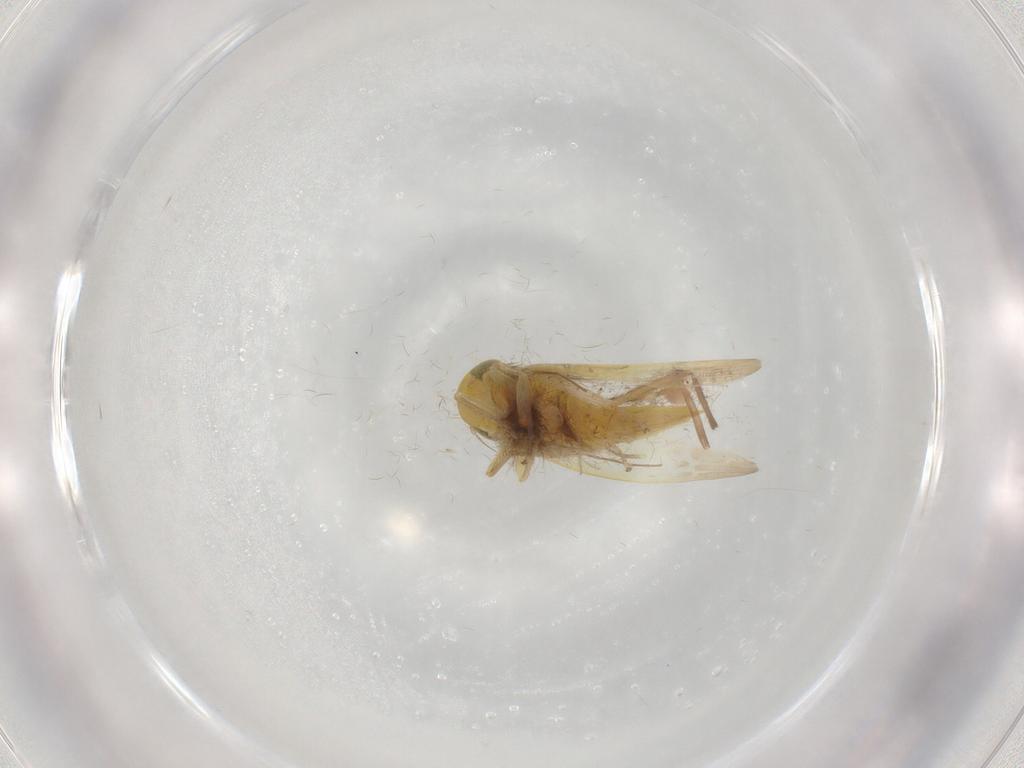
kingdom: Animalia
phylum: Arthropoda
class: Insecta
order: Hemiptera
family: Cicadellidae
